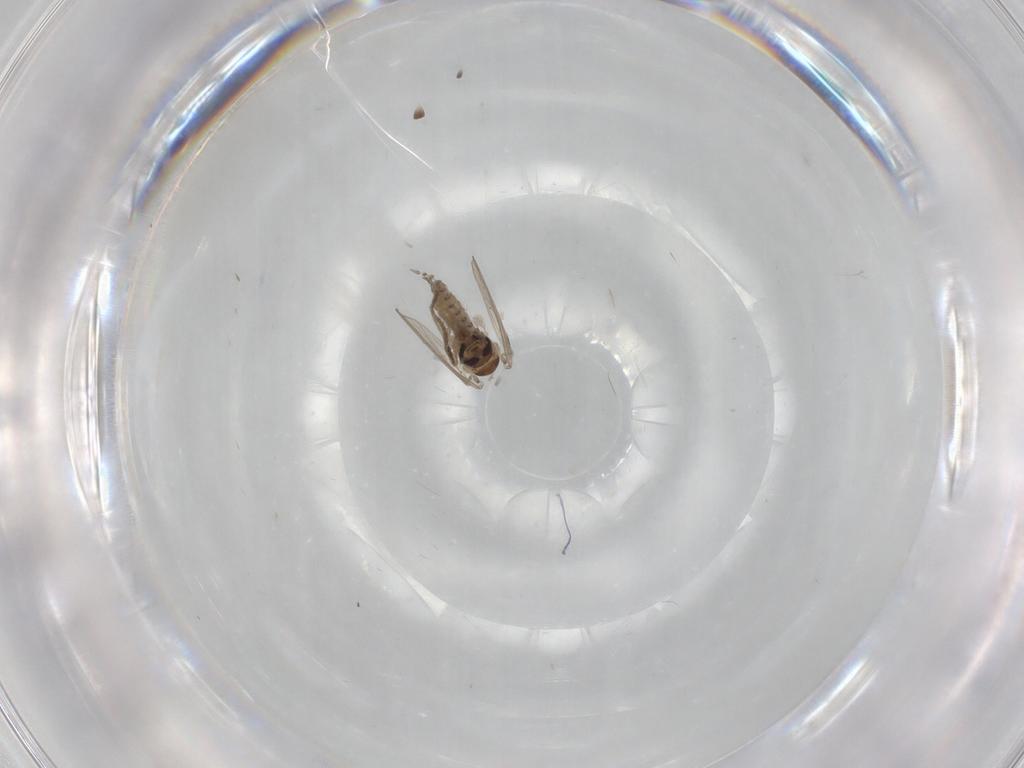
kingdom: Animalia
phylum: Arthropoda
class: Insecta
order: Diptera
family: Psychodidae
